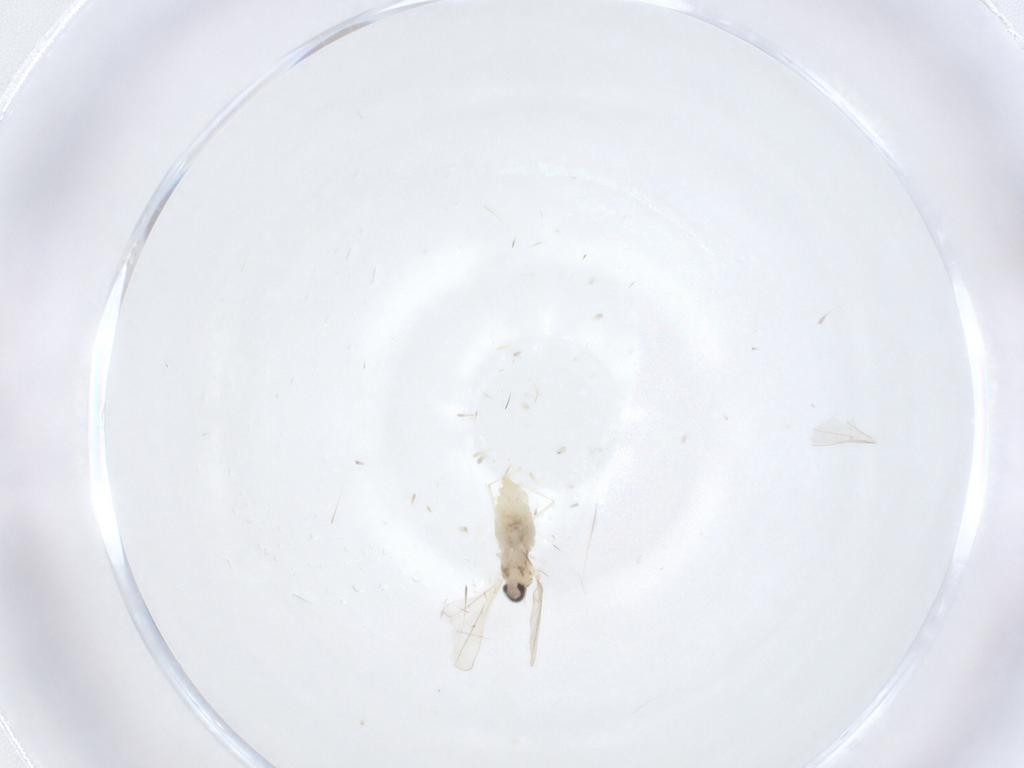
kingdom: Animalia
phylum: Arthropoda
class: Insecta
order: Diptera
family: Cecidomyiidae
